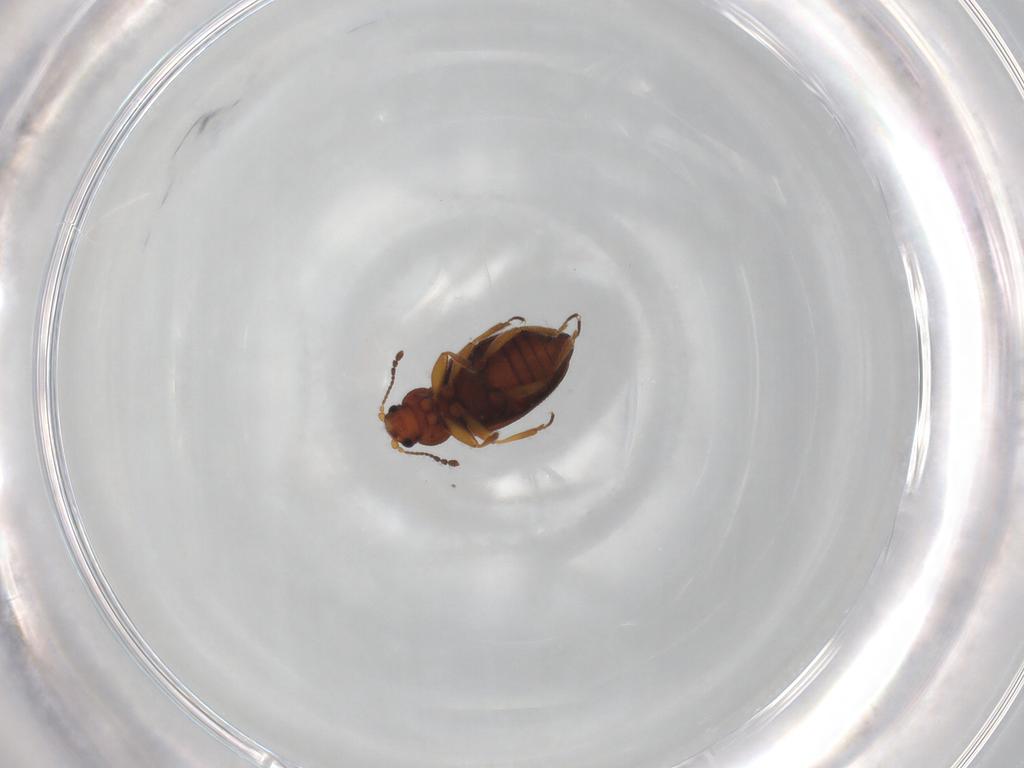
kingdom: Animalia
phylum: Arthropoda
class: Insecta
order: Coleoptera
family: Latridiidae
